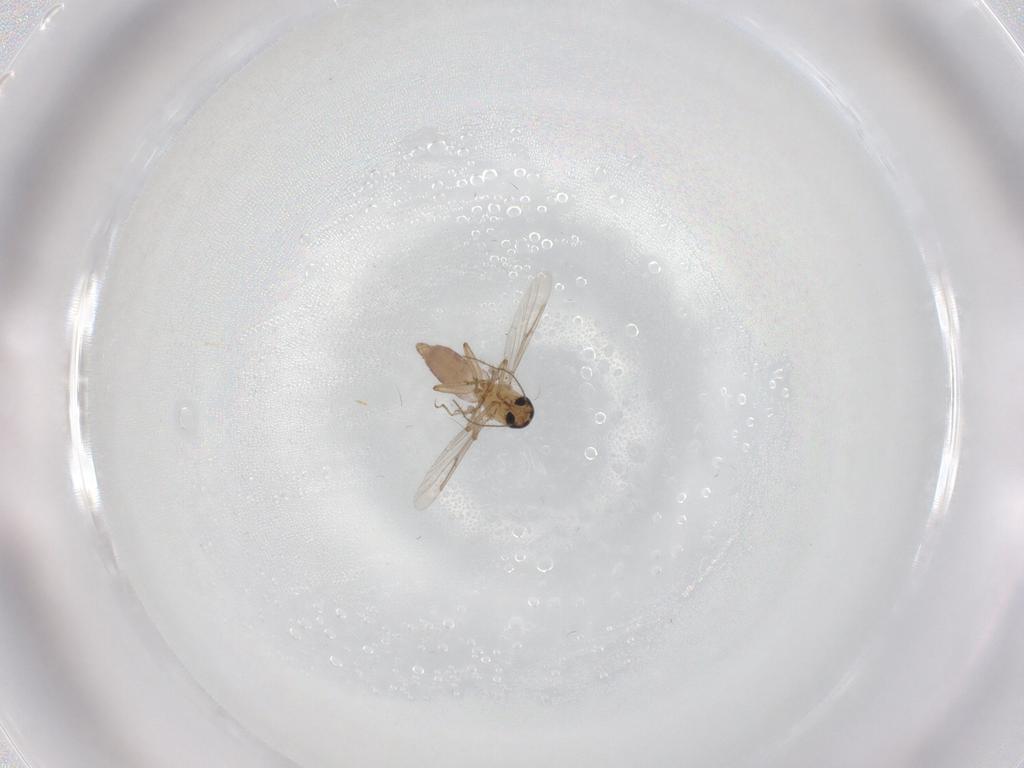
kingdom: Animalia
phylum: Arthropoda
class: Insecta
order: Diptera
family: Ceratopogonidae
